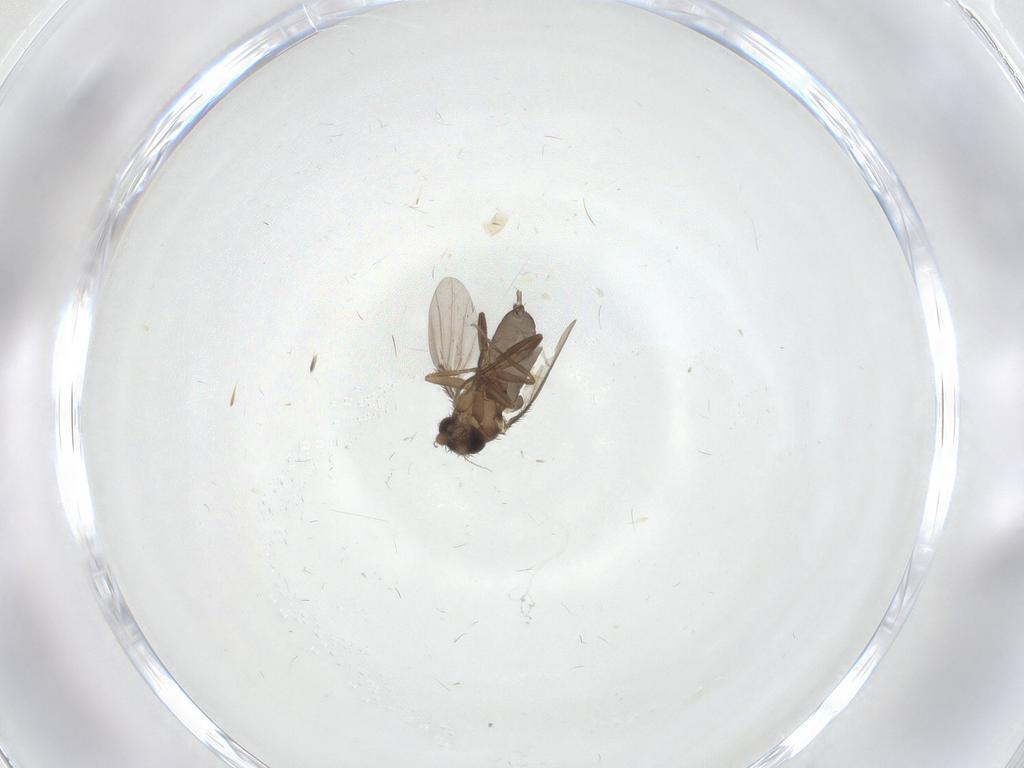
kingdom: Animalia
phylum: Arthropoda
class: Insecta
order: Diptera
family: Phoridae
